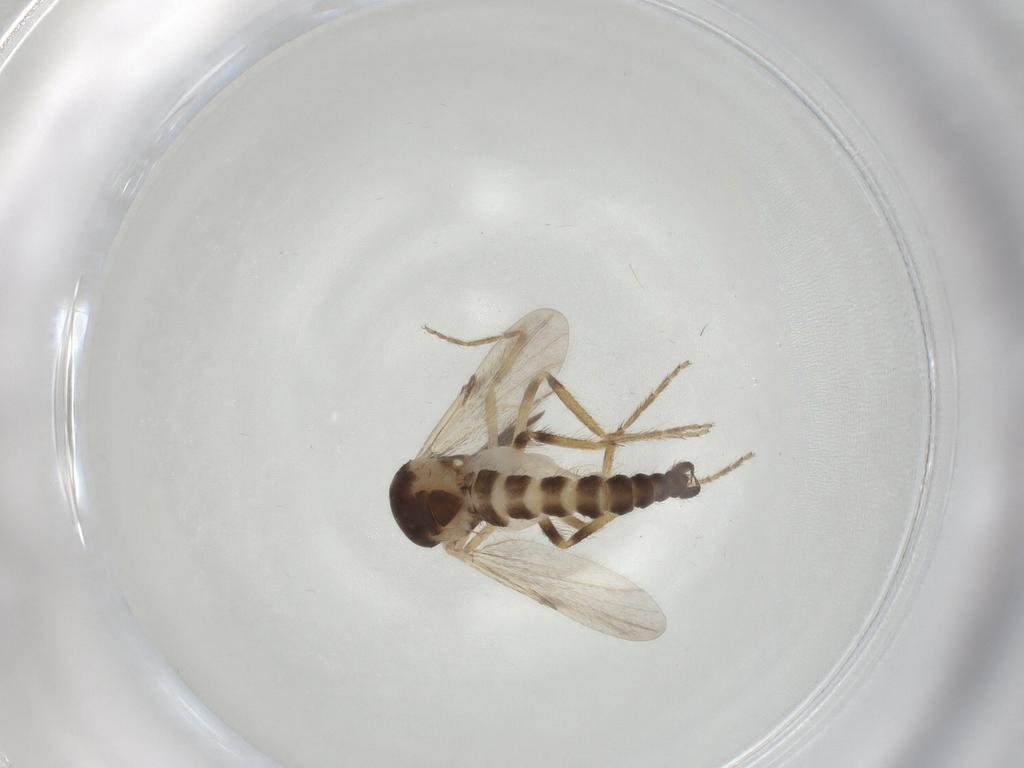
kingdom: Animalia
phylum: Arthropoda
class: Insecta
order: Diptera
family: Ceratopogonidae
